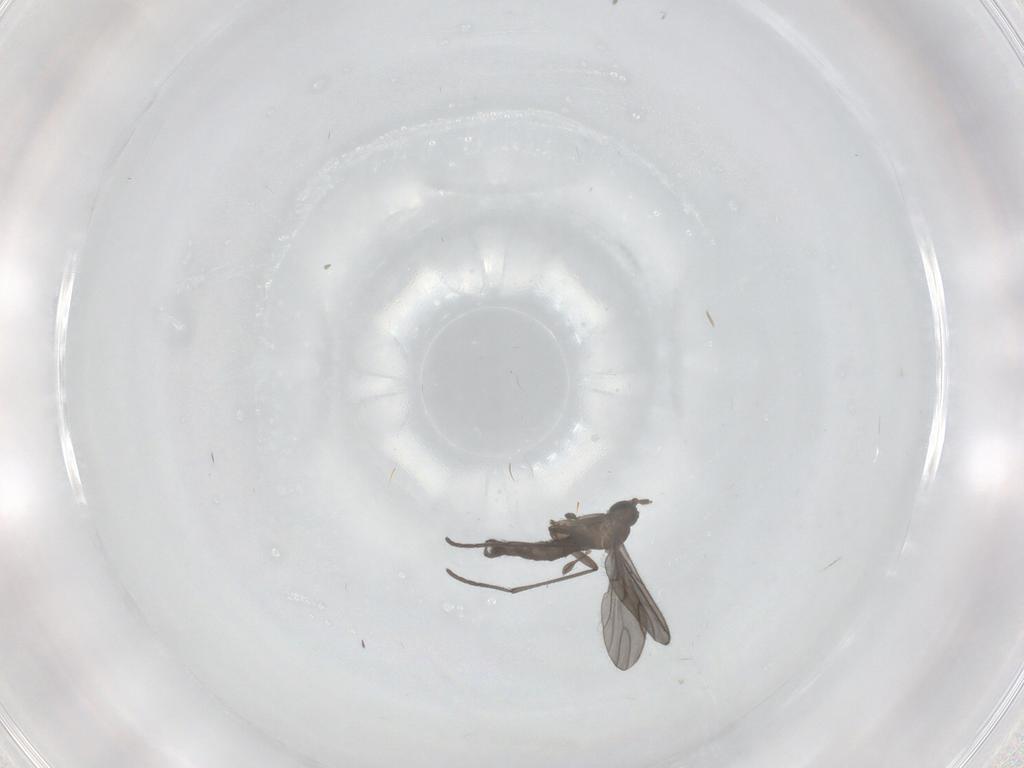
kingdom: Animalia
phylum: Arthropoda
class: Insecta
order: Diptera
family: Sciaridae
